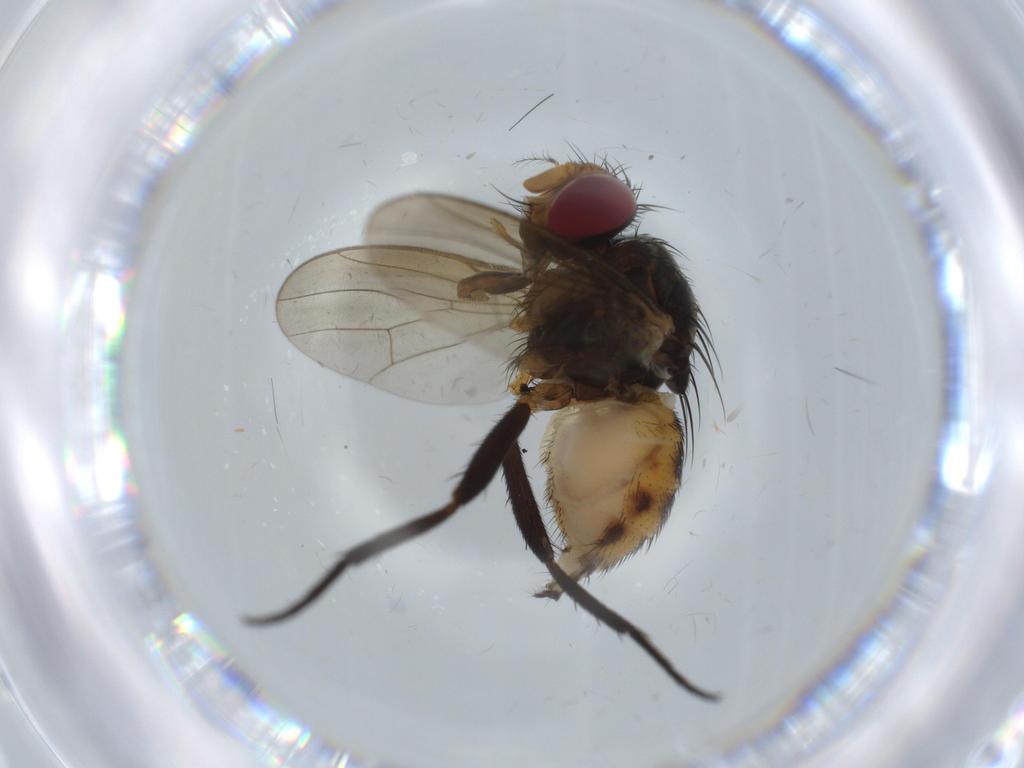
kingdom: Animalia
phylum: Arthropoda
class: Insecta
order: Diptera
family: Anthomyiidae
